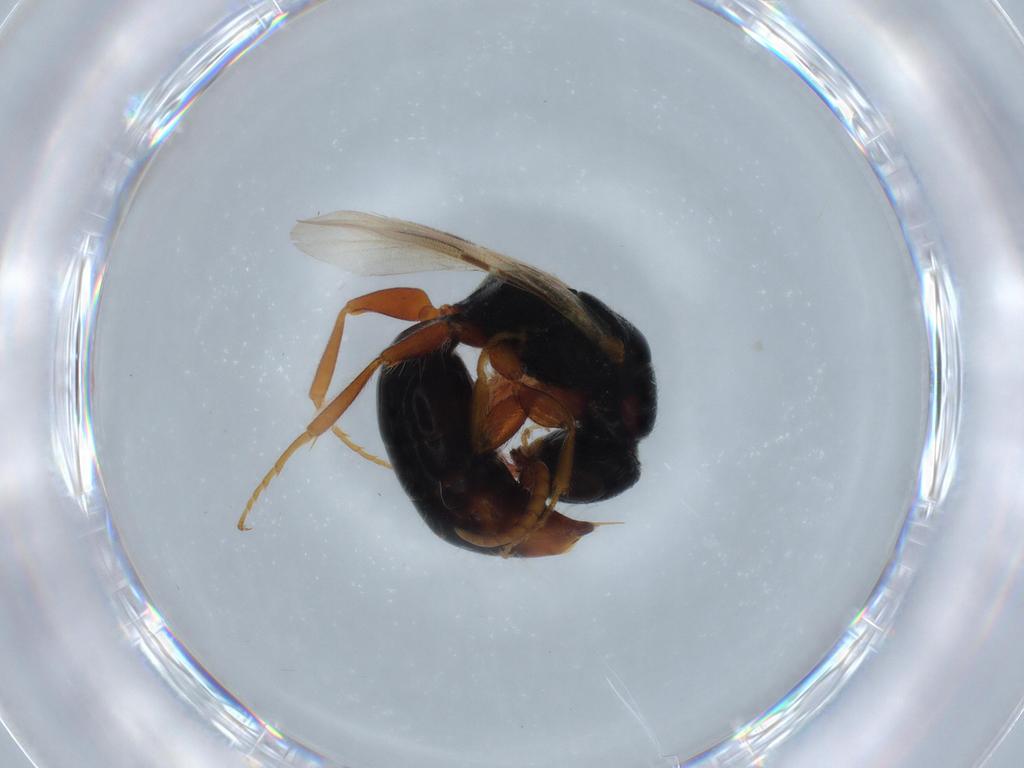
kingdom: Animalia
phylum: Arthropoda
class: Insecta
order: Hymenoptera
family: Bethylidae
